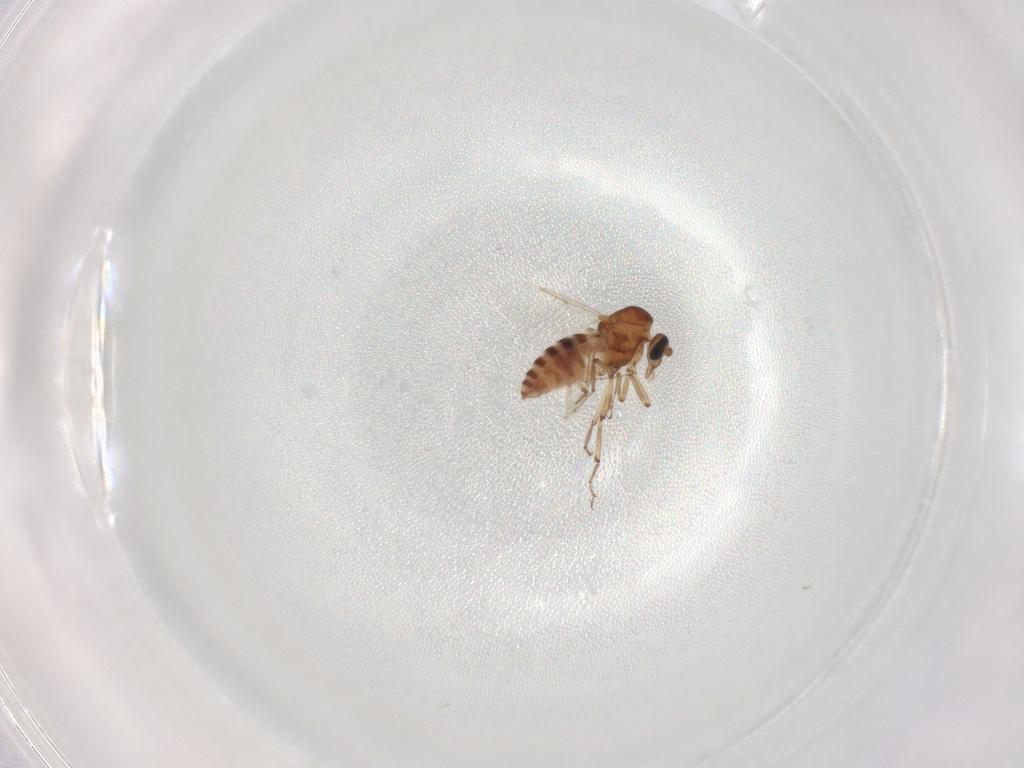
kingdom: Animalia
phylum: Arthropoda
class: Insecta
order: Diptera
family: Ceratopogonidae
